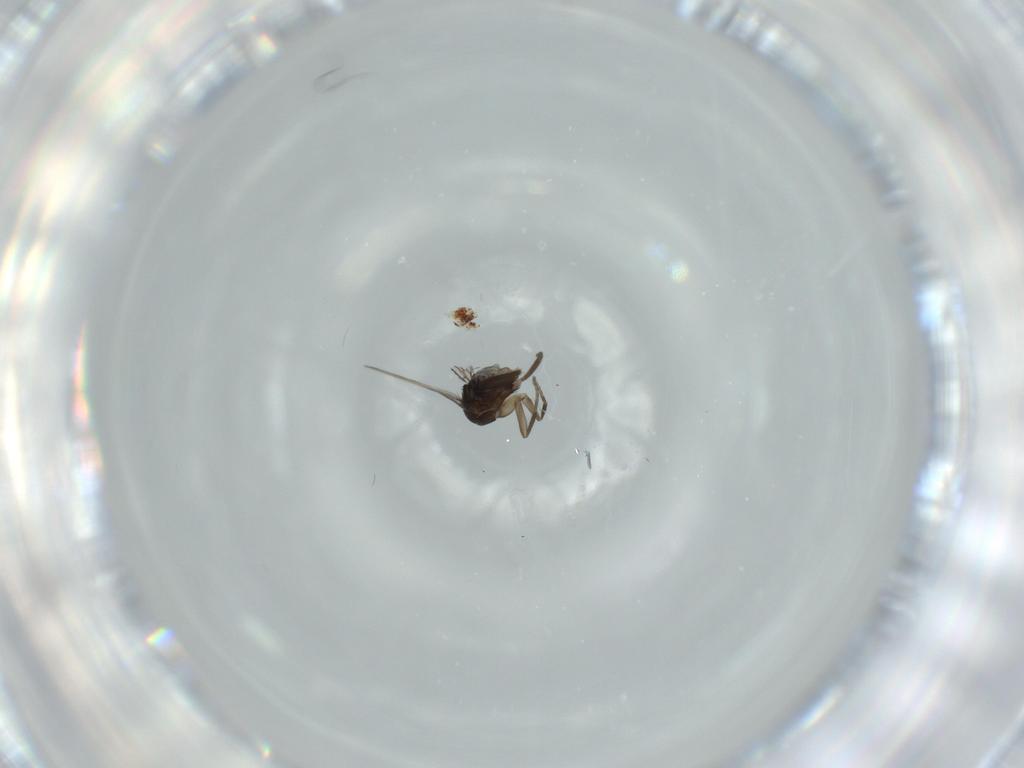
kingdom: Animalia
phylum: Arthropoda
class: Insecta
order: Diptera
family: Phoridae
